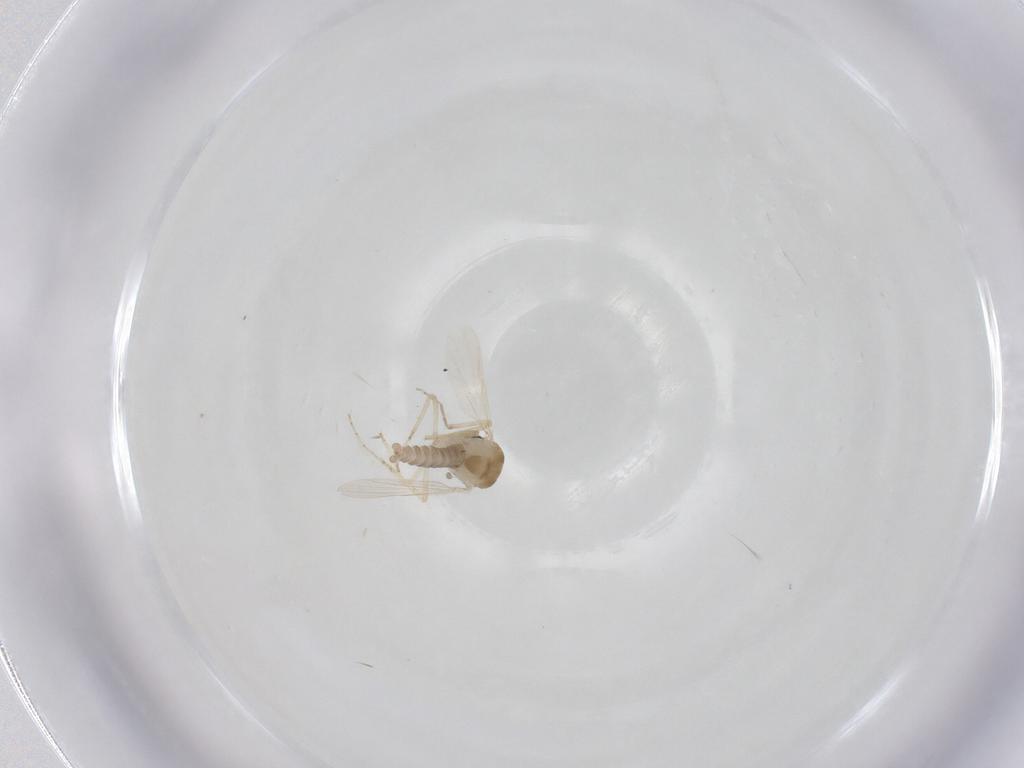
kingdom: Animalia
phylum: Arthropoda
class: Insecta
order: Diptera
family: Ceratopogonidae
